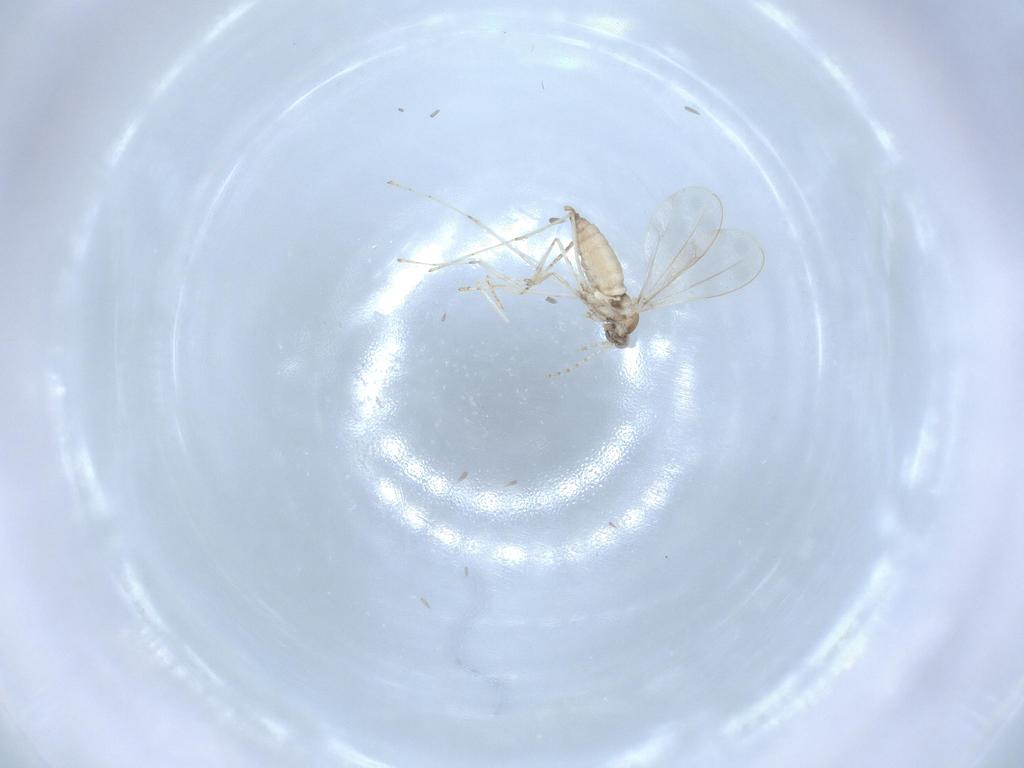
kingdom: Animalia
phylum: Arthropoda
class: Insecta
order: Diptera
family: Cecidomyiidae
